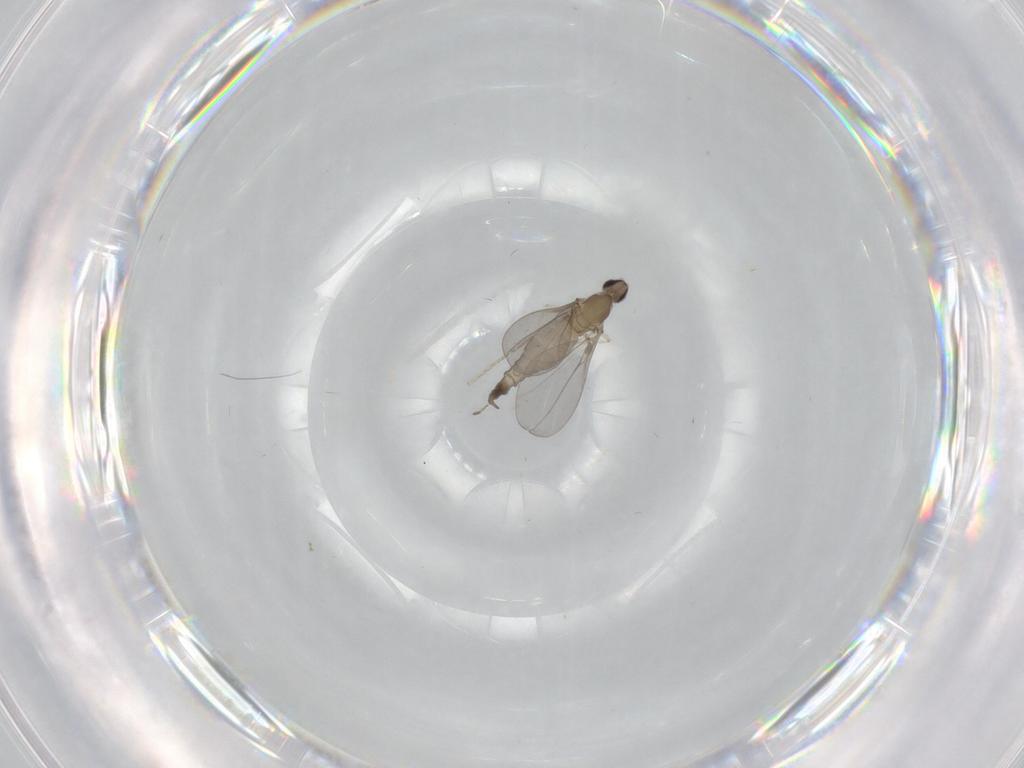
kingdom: Animalia
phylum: Arthropoda
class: Insecta
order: Diptera
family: Cecidomyiidae
